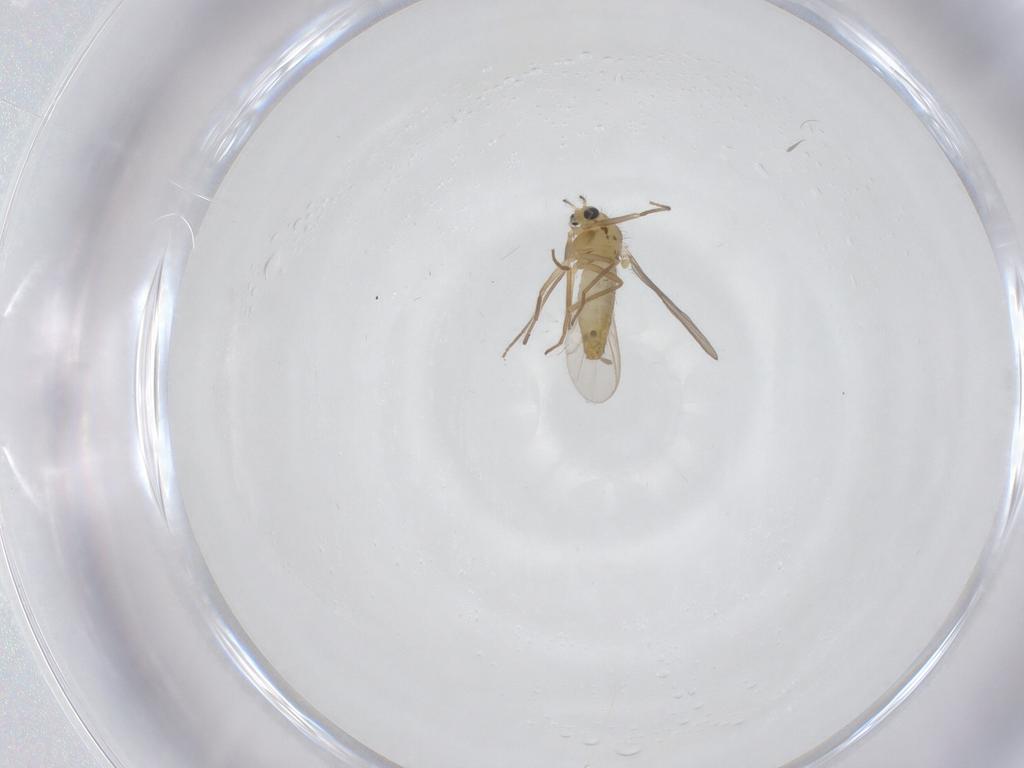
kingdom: Animalia
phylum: Arthropoda
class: Insecta
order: Diptera
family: Chironomidae
